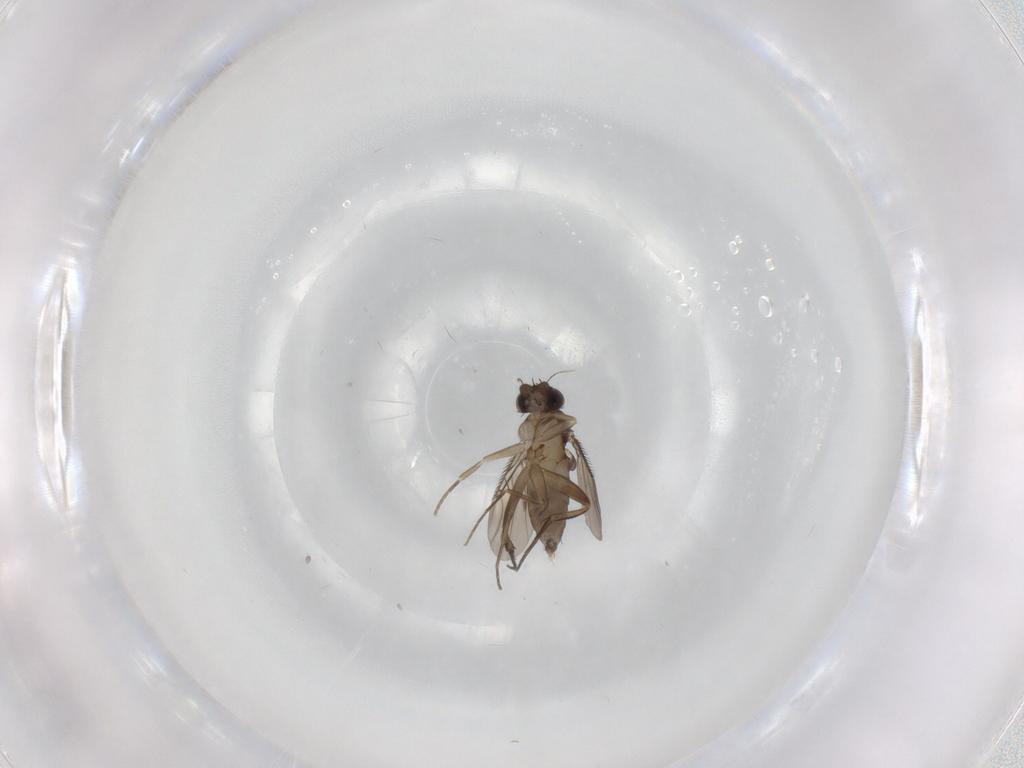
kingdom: Animalia
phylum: Arthropoda
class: Insecta
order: Diptera
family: Phoridae
